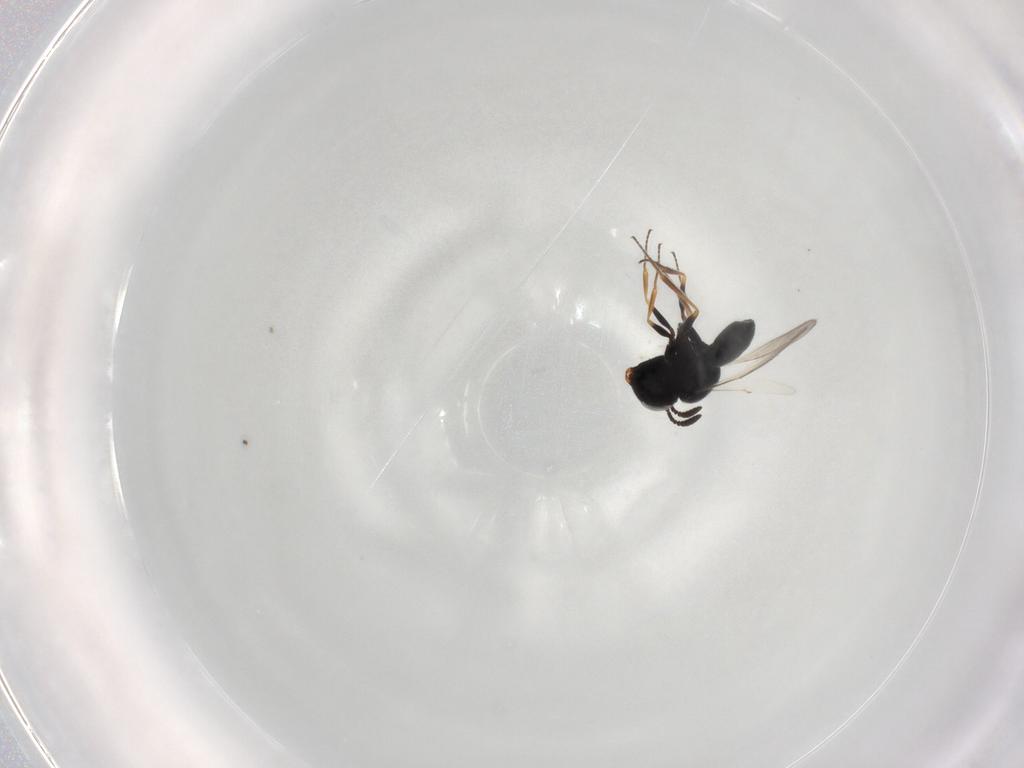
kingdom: Animalia
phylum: Arthropoda
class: Insecta
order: Hymenoptera
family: Scelionidae
